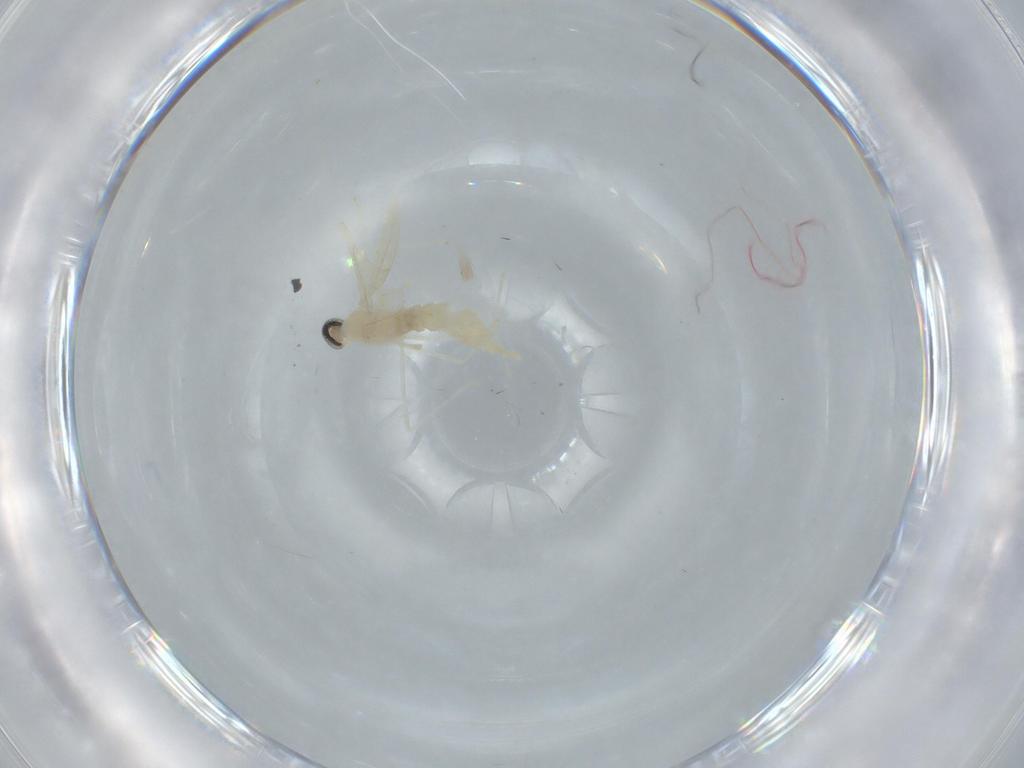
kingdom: Animalia
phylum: Arthropoda
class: Insecta
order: Diptera
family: Cecidomyiidae
